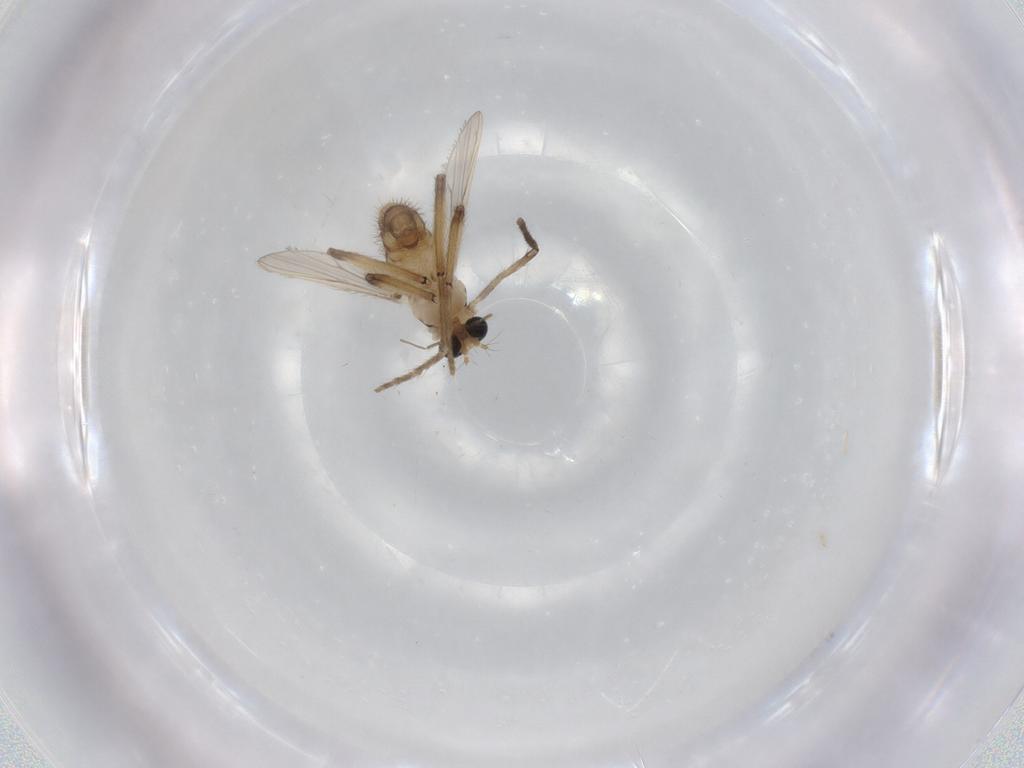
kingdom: Animalia
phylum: Arthropoda
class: Insecta
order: Diptera
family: Chironomidae
